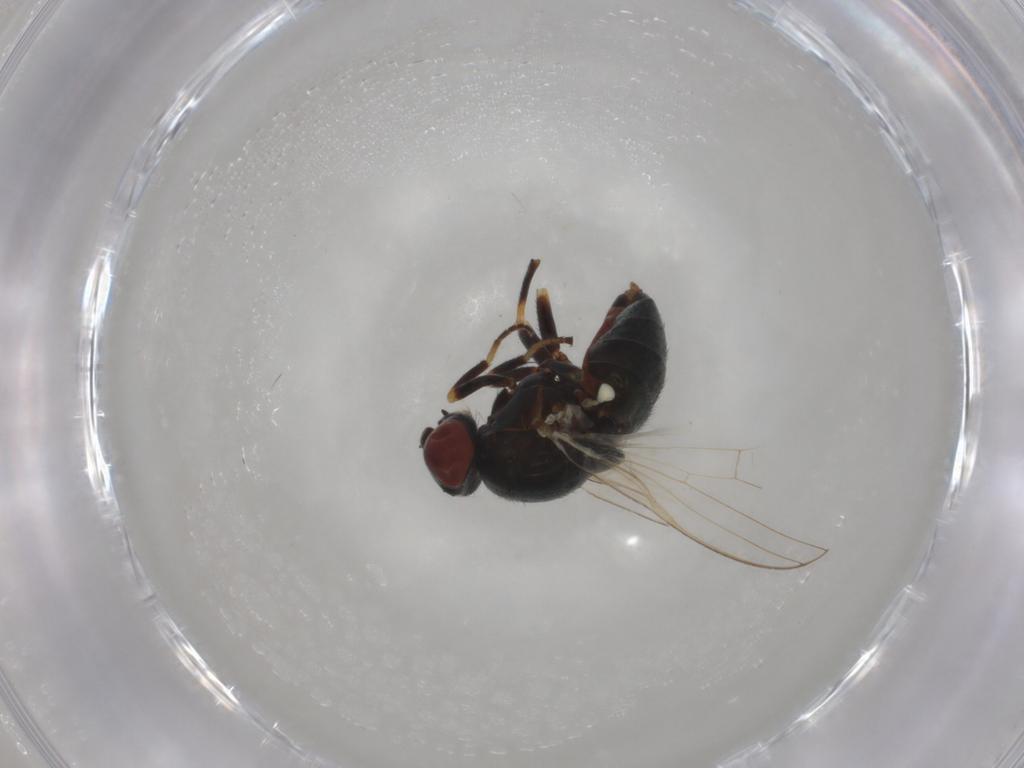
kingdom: Animalia
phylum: Arthropoda
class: Insecta
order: Diptera
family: Chamaemyiidae
